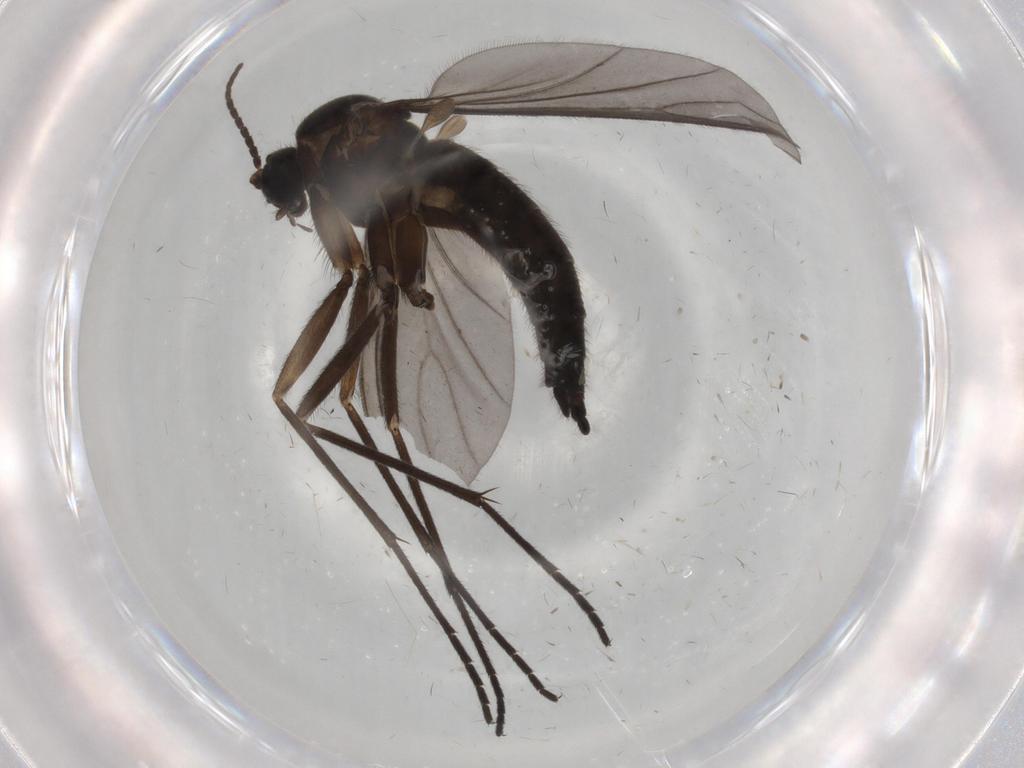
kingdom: Animalia
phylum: Arthropoda
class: Insecta
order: Diptera
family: Sciaridae
